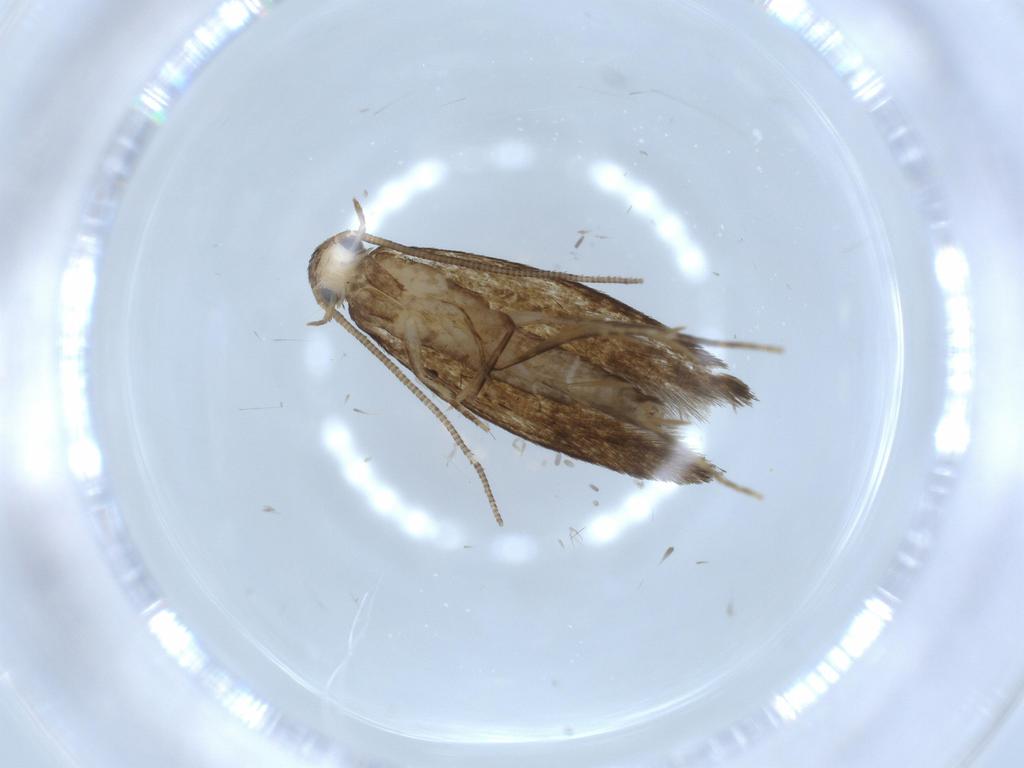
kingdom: Animalia
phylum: Arthropoda
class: Insecta
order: Lepidoptera
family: Tineidae
